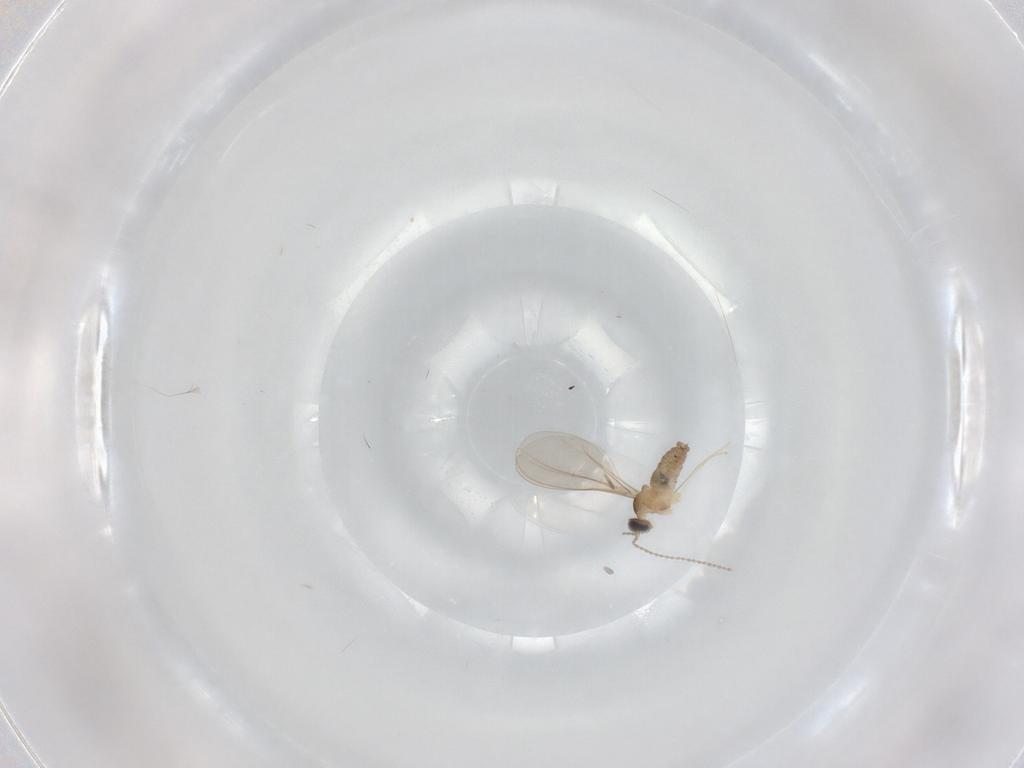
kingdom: Animalia
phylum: Arthropoda
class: Insecta
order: Diptera
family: Cecidomyiidae
